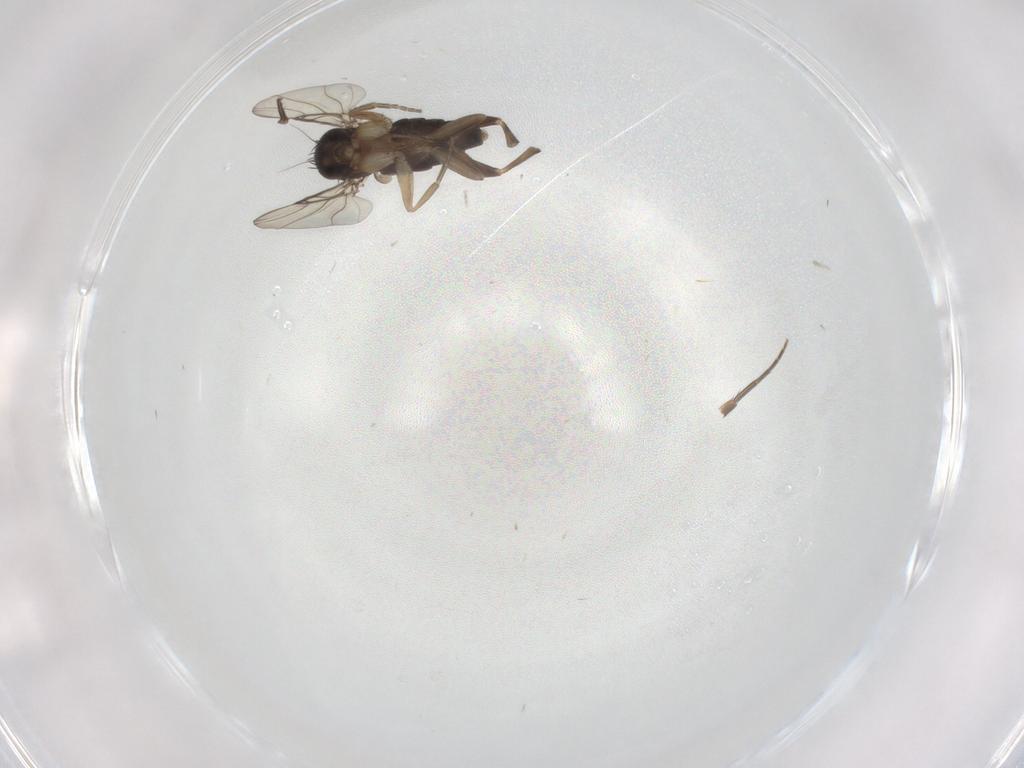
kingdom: Animalia
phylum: Arthropoda
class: Insecta
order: Diptera
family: Phoridae
